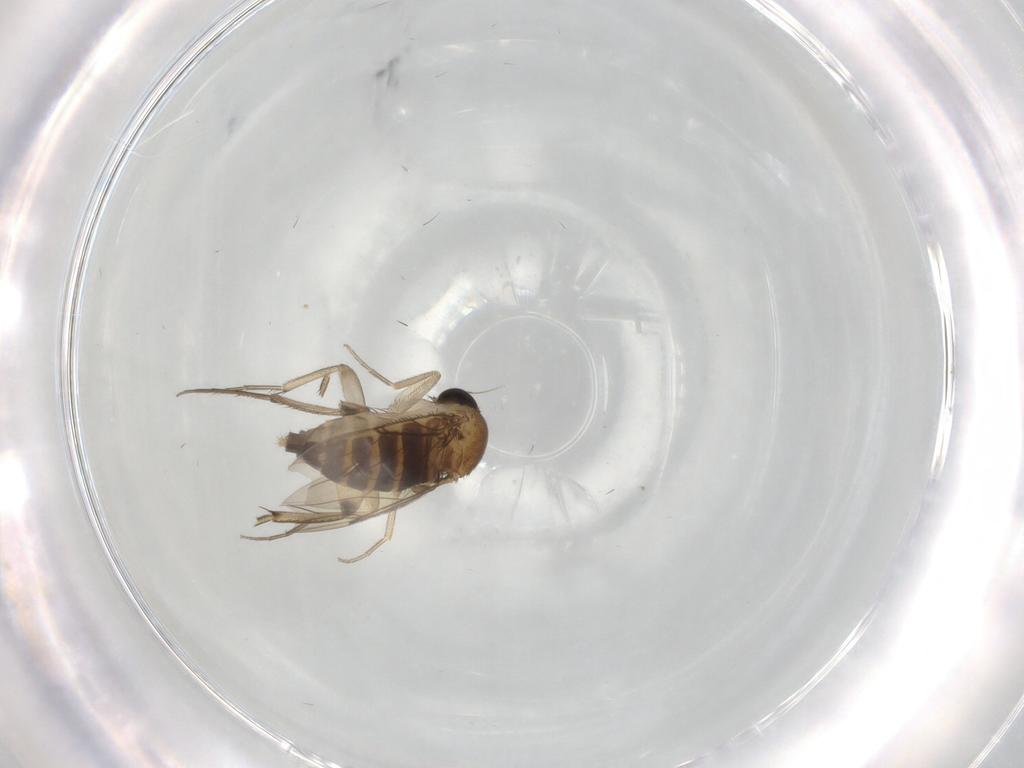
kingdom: Animalia
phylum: Arthropoda
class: Insecta
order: Diptera
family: Phoridae
